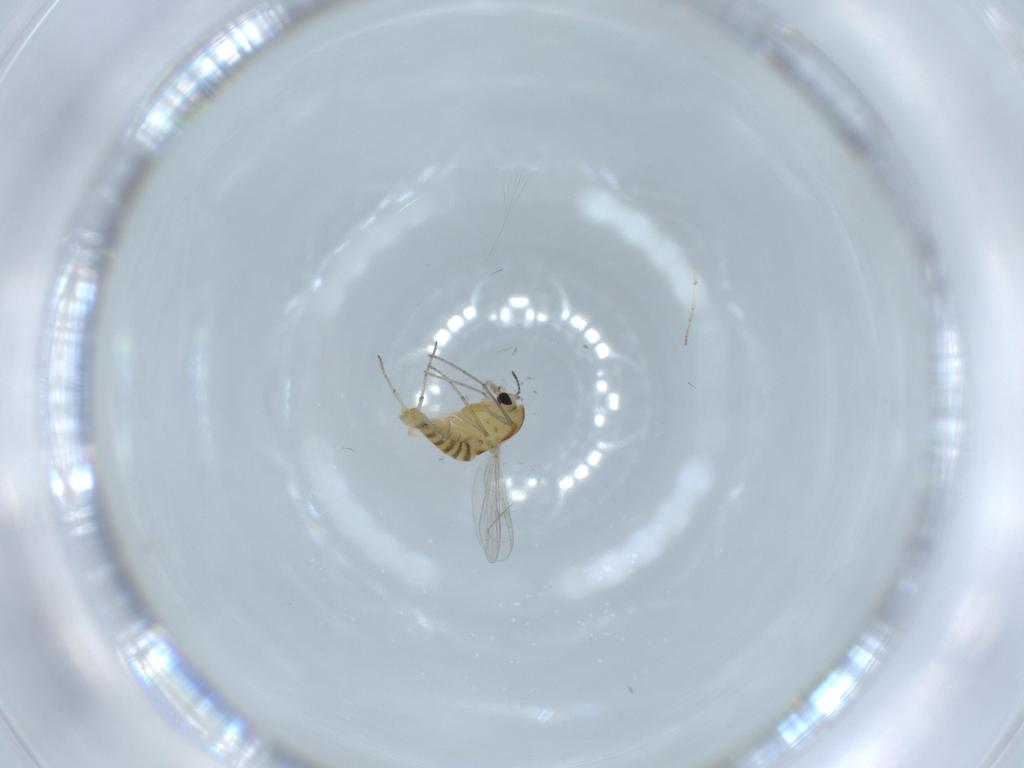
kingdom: Animalia
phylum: Arthropoda
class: Insecta
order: Diptera
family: Chironomidae
